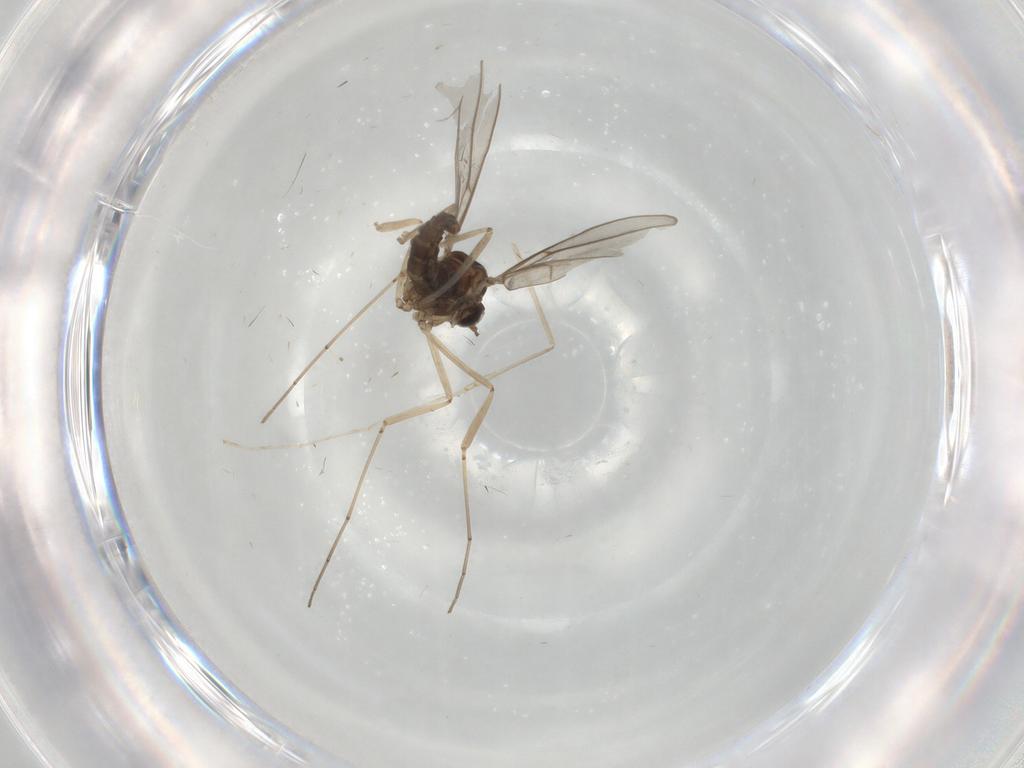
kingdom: Animalia
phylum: Arthropoda
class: Insecta
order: Diptera
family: Cecidomyiidae
